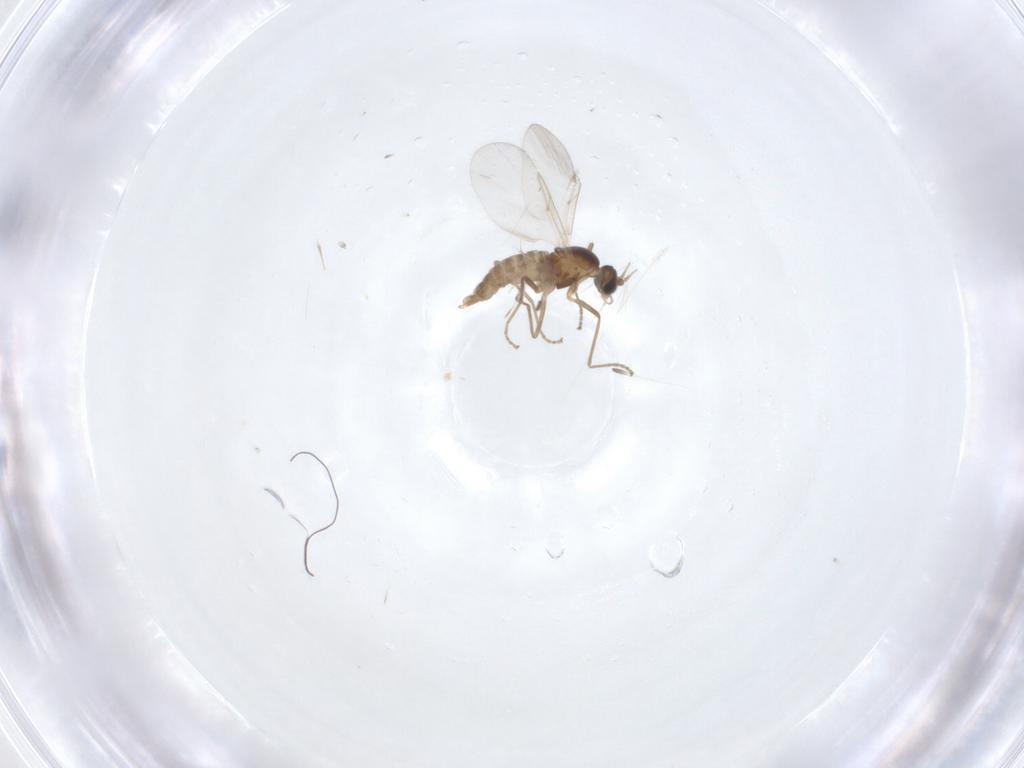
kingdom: Animalia
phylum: Arthropoda
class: Insecta
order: Diptera
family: Cecidomyiidae
